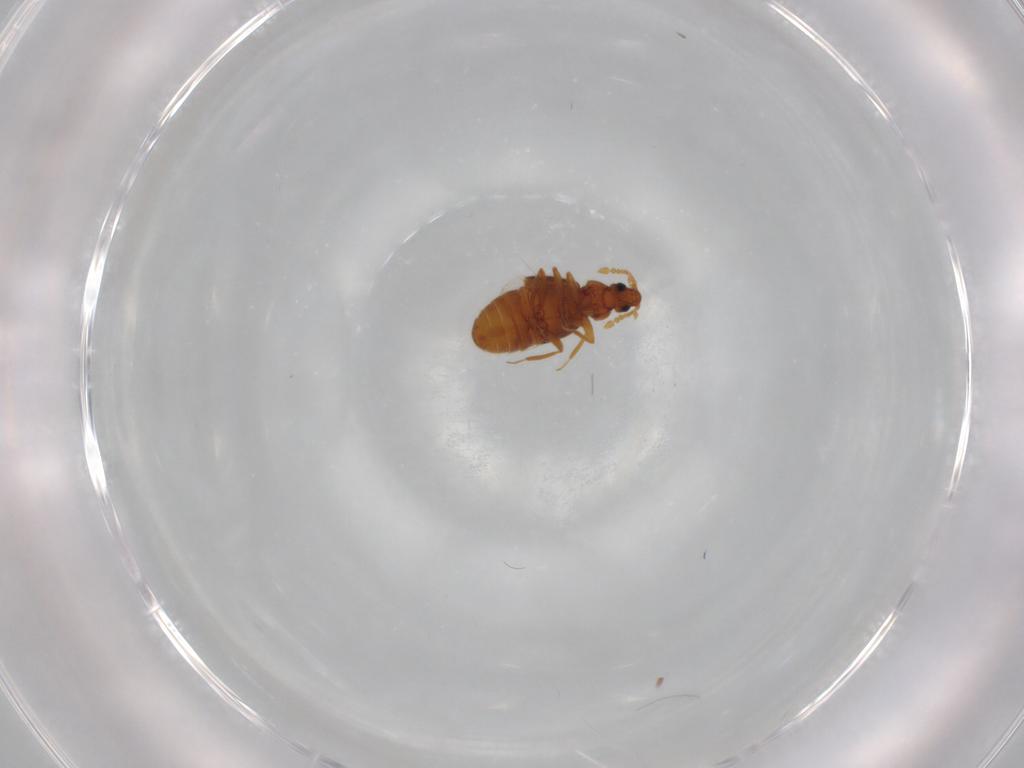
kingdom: Animalia
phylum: Arthropoda
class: Insecta
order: Coleoptera
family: Staphylinidae
